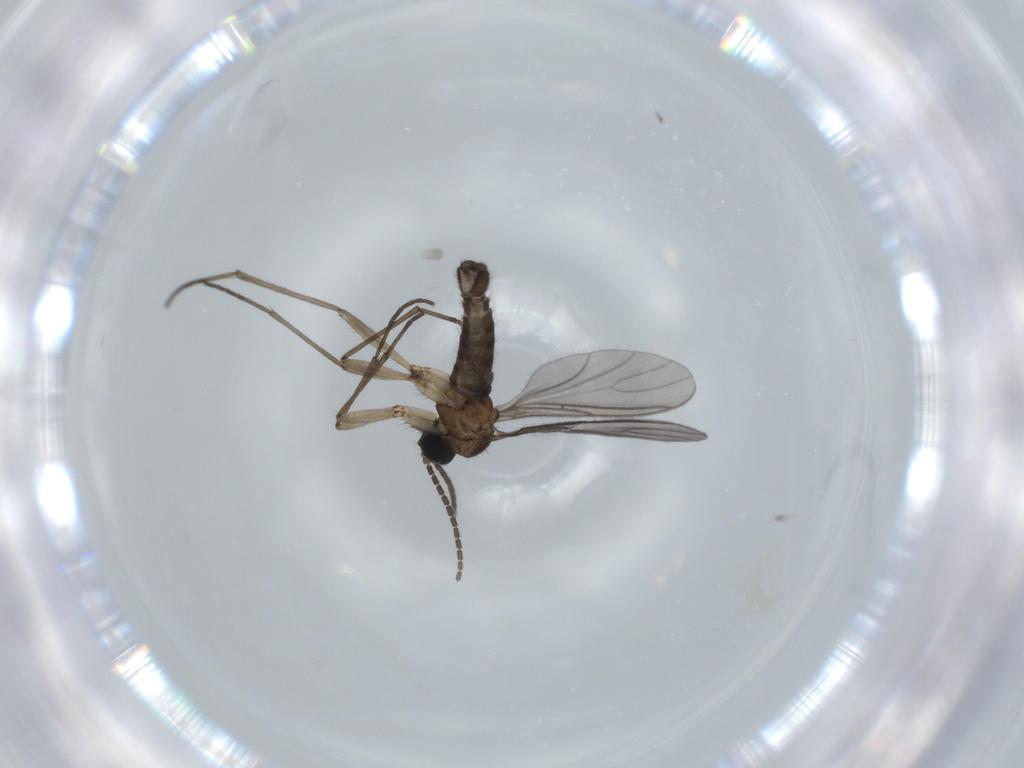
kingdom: Animalia
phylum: Arthropoda
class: Insecta
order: Diptera
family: Sciaridae
